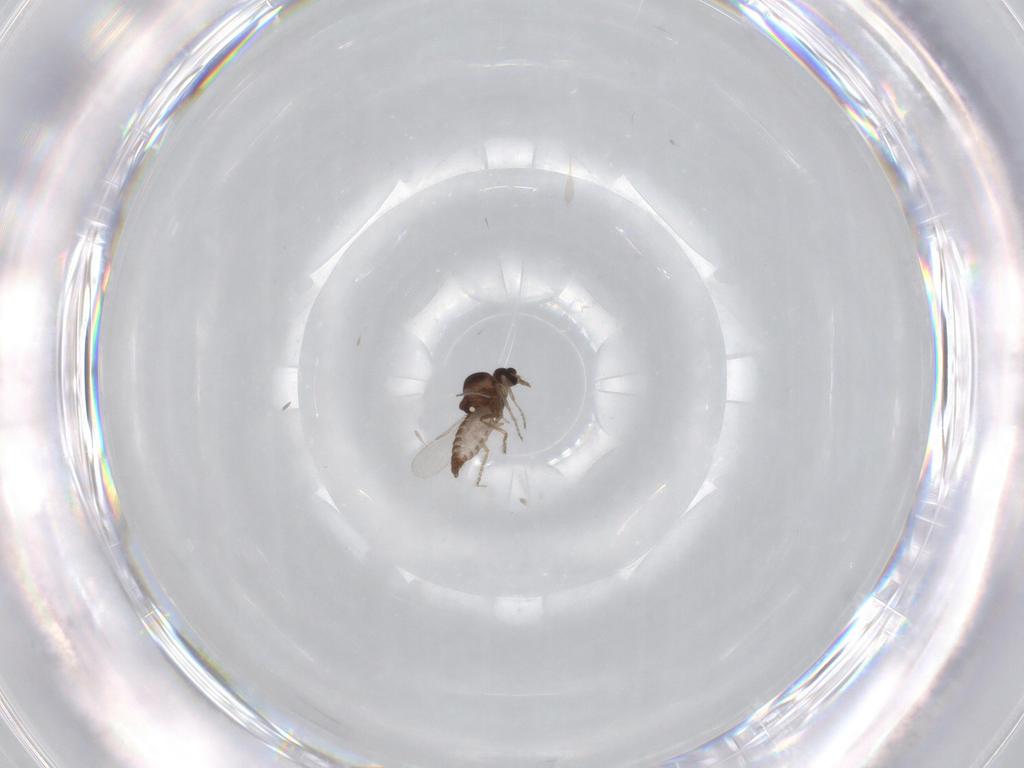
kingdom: Animalia
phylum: Arthropoda
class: Insecta
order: Diptera
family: Ceratopogonidae
